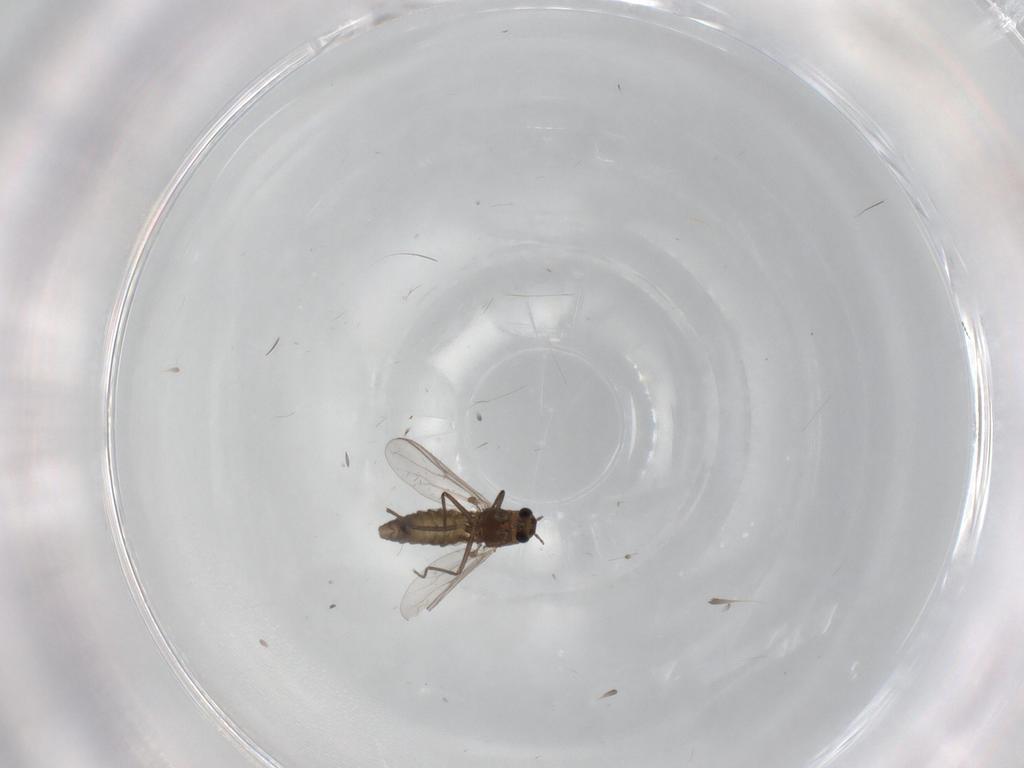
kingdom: Animalia
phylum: Arthropoda
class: Insecta
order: Diptera
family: Chironomidae
